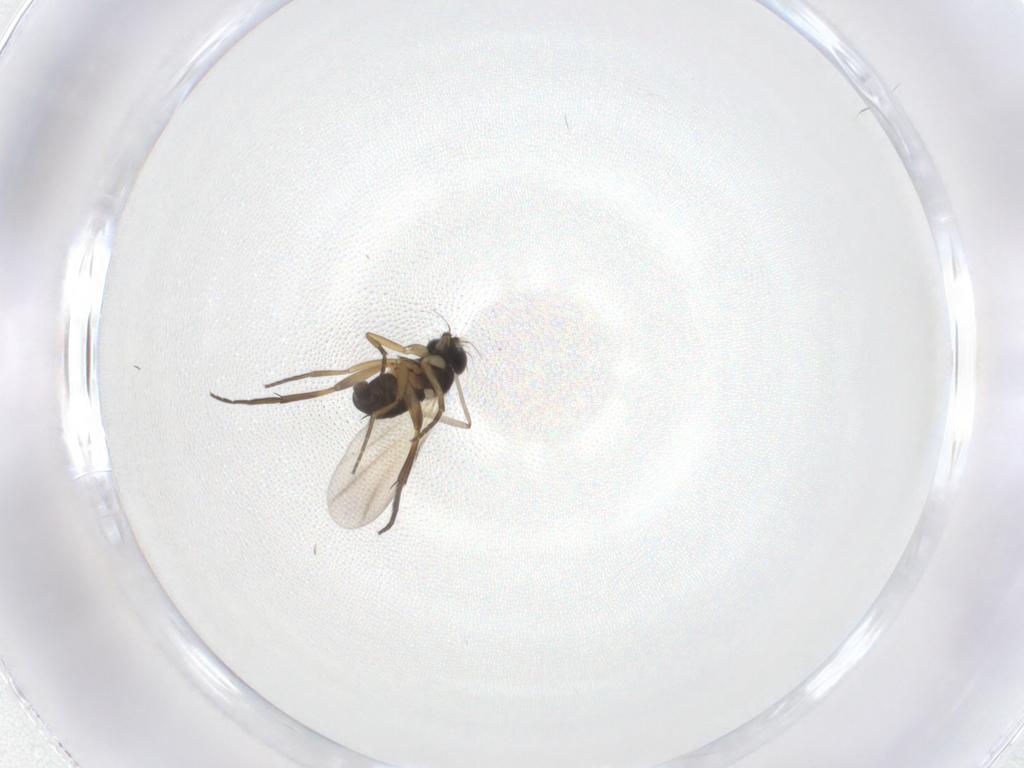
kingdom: Animalia
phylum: Arthropoda
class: Insecta
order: Diptera
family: Phoridae
